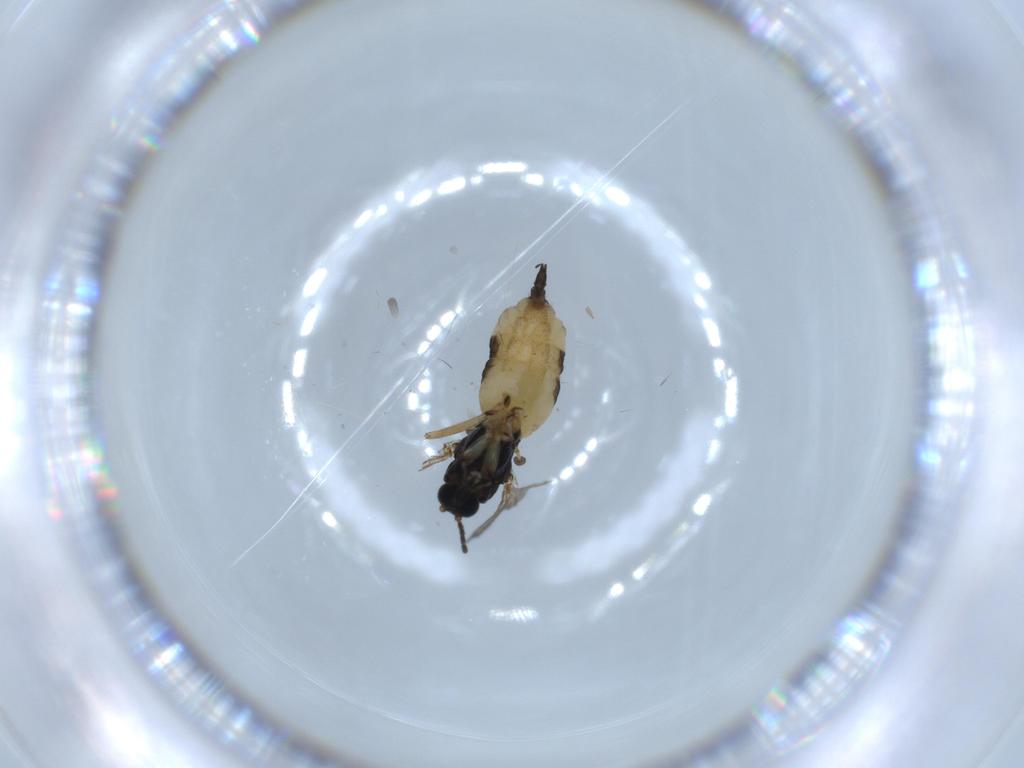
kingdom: Animalia
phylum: Arthropoda
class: Insecta
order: Diptera
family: Sciaridae
